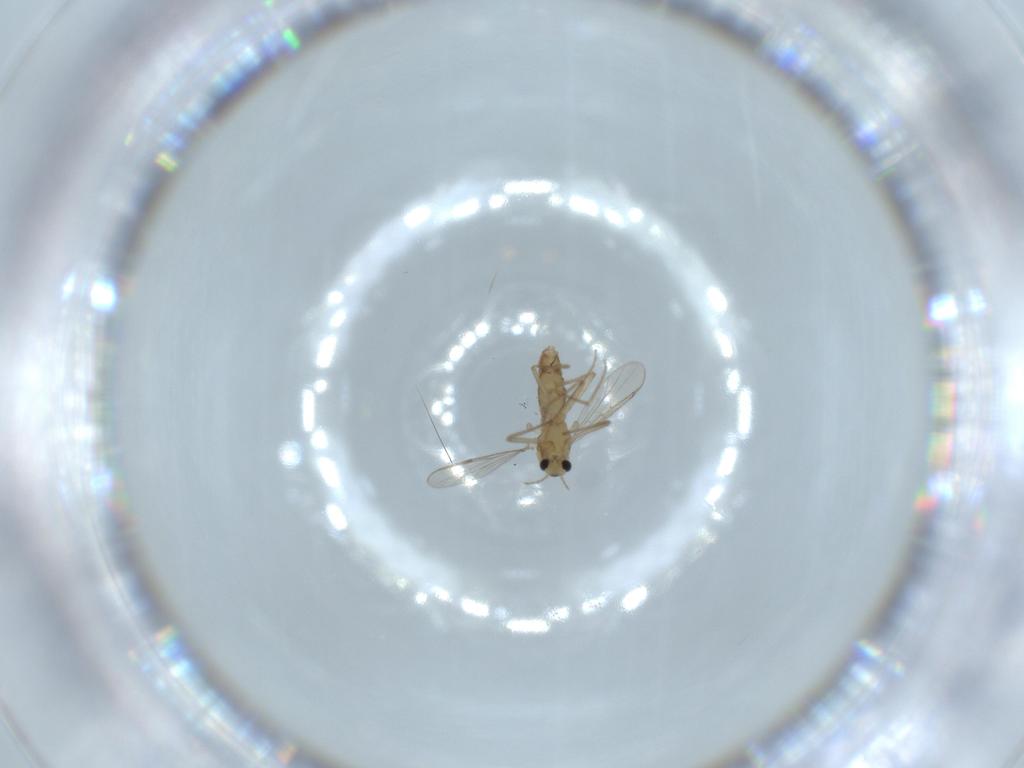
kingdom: Animalia
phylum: Arthropoda
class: Insecta
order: Diptera
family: Chironomidae
